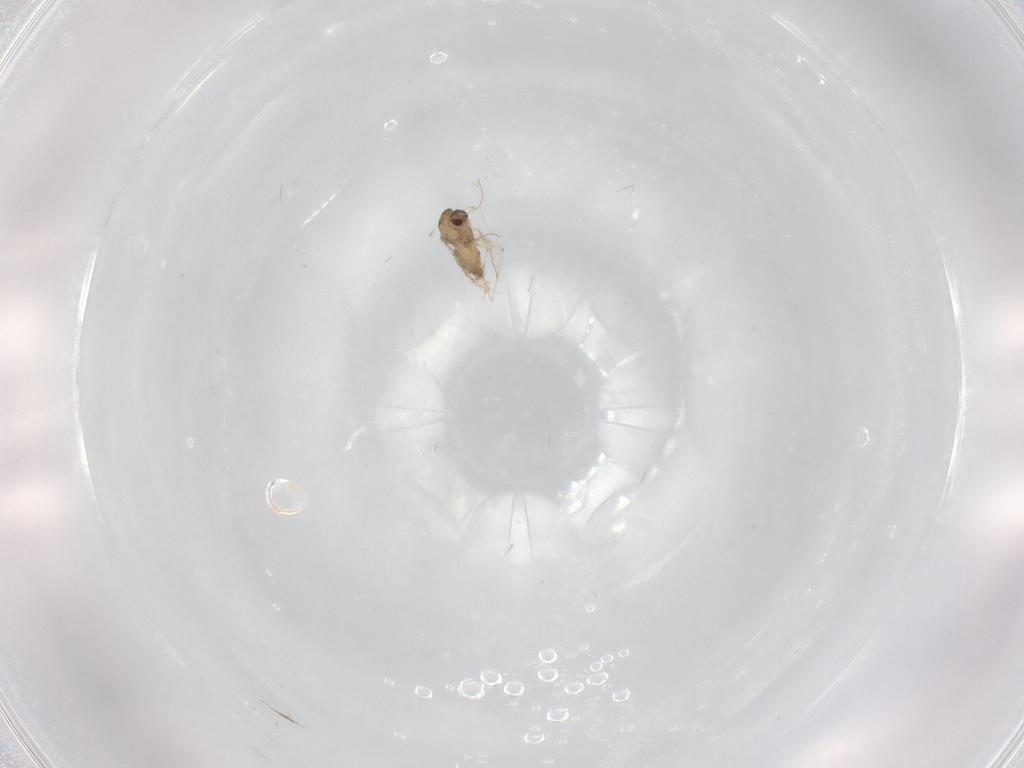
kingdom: Animalia
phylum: Arthropoda
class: Insecta
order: Diptera
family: Chironomidae
